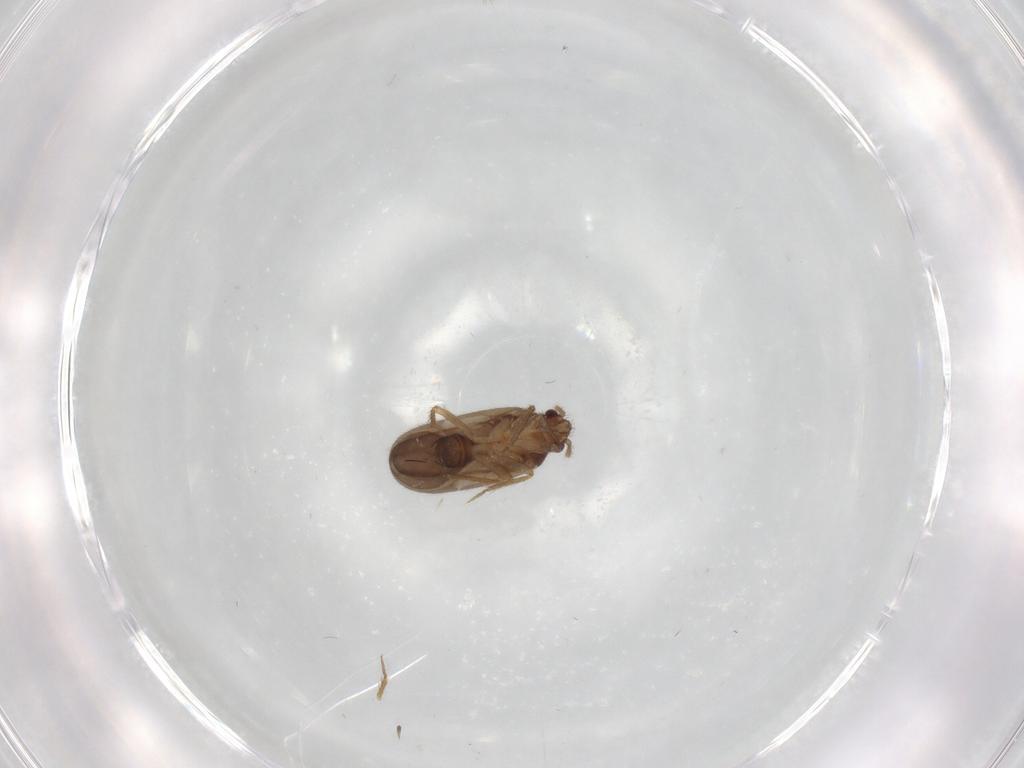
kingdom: Animalia
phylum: Arthropoda
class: Insecta
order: Hemiptera
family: Ceratocombidae
